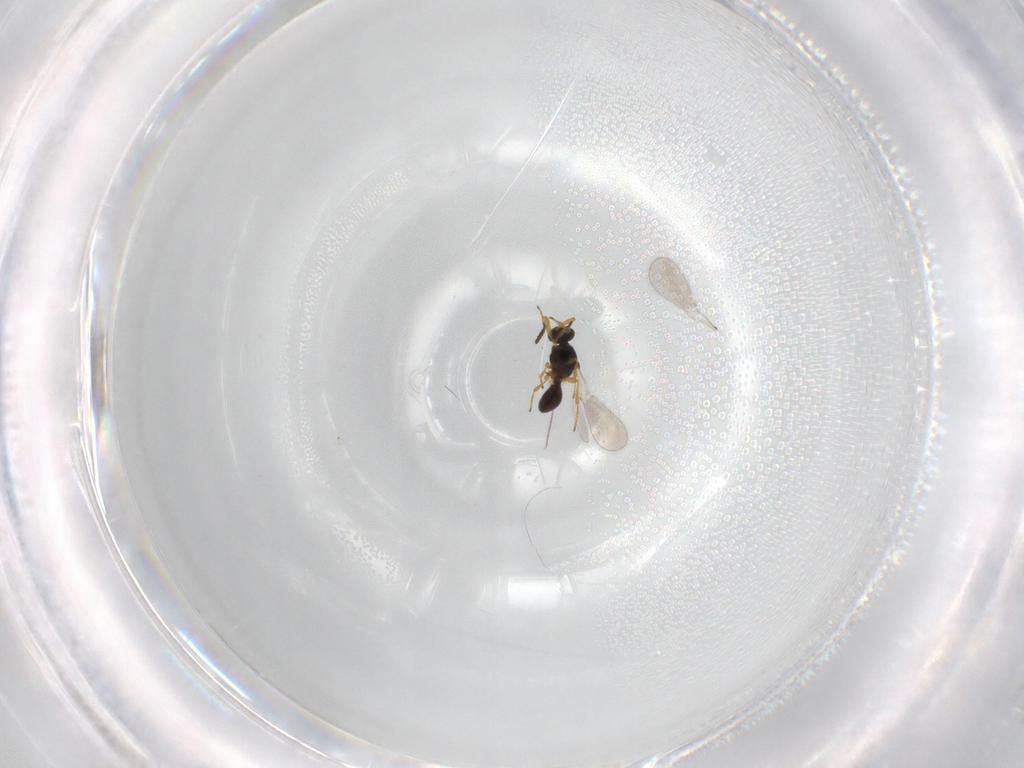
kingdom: Animalia
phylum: Arthropoda
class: Insecta
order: Hymenoptera
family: Platygastridae
